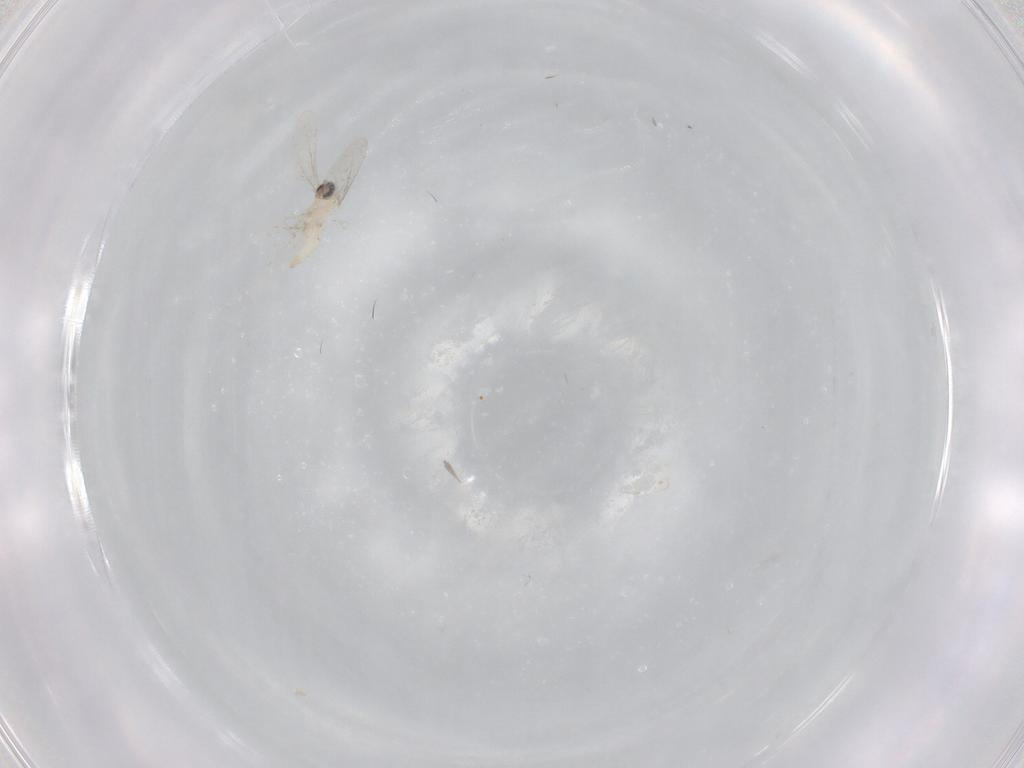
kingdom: Animalia
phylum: Arthropoda
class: Insecta
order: Diptera
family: Cecidomyiidae
